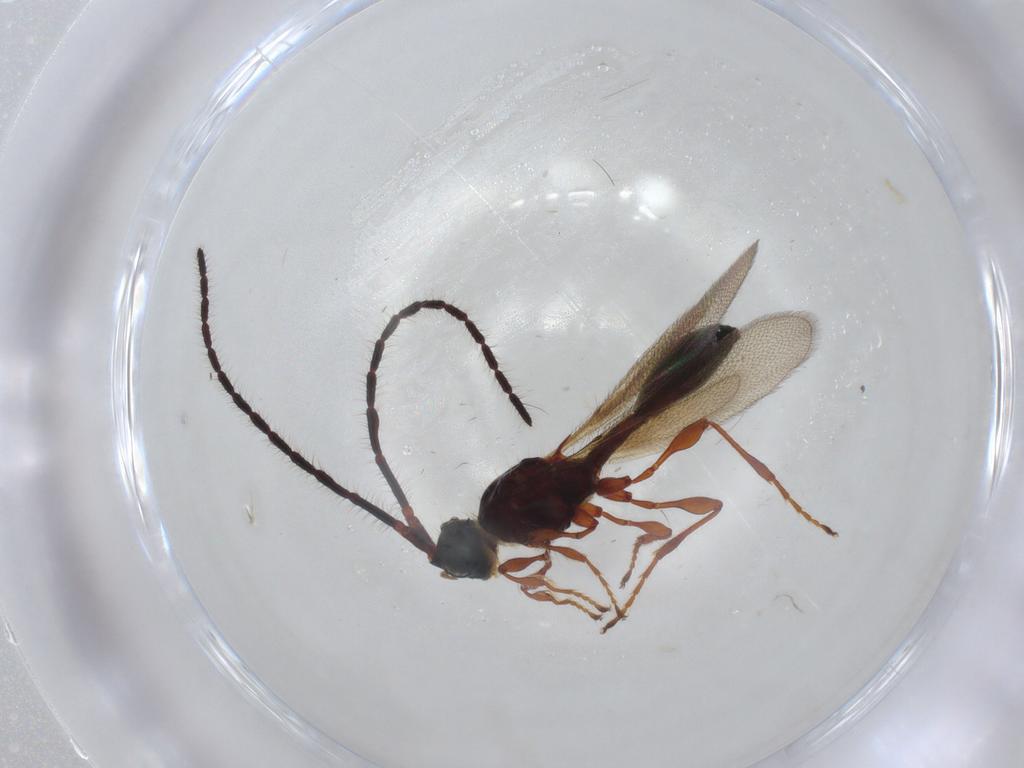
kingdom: Animalia
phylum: Arthropoda
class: Insecta
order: Hymenoptera
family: Diapriidae
